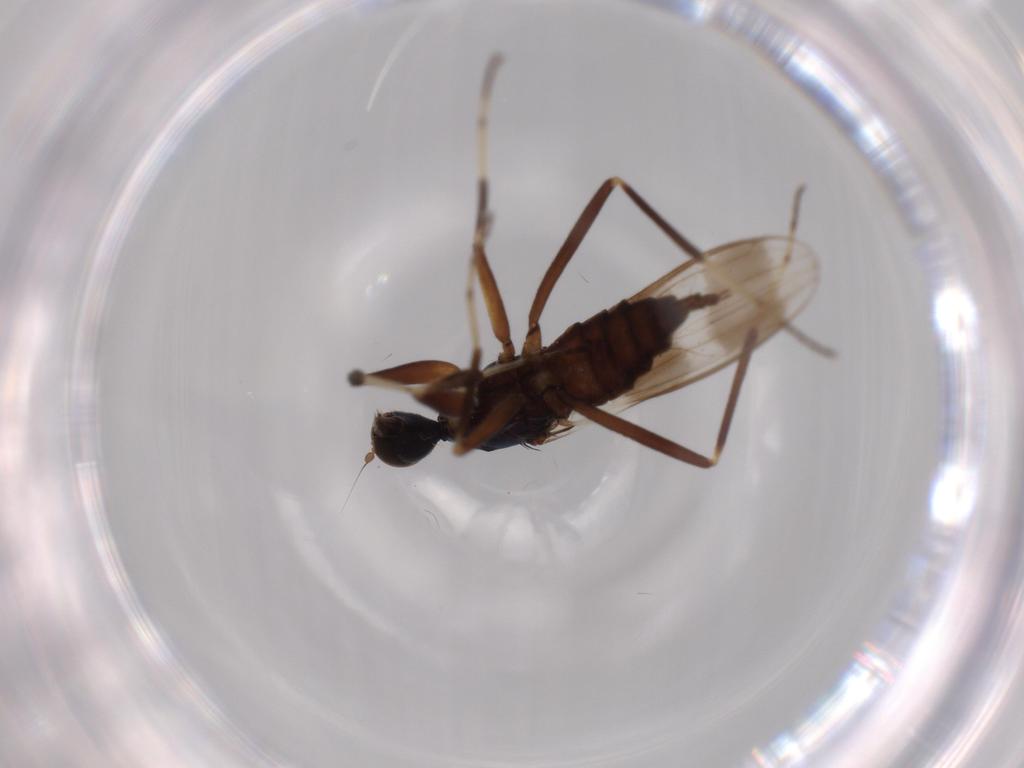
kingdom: Animalia
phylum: Arthropoda
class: Insecta
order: Diptera
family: Hybotidae
